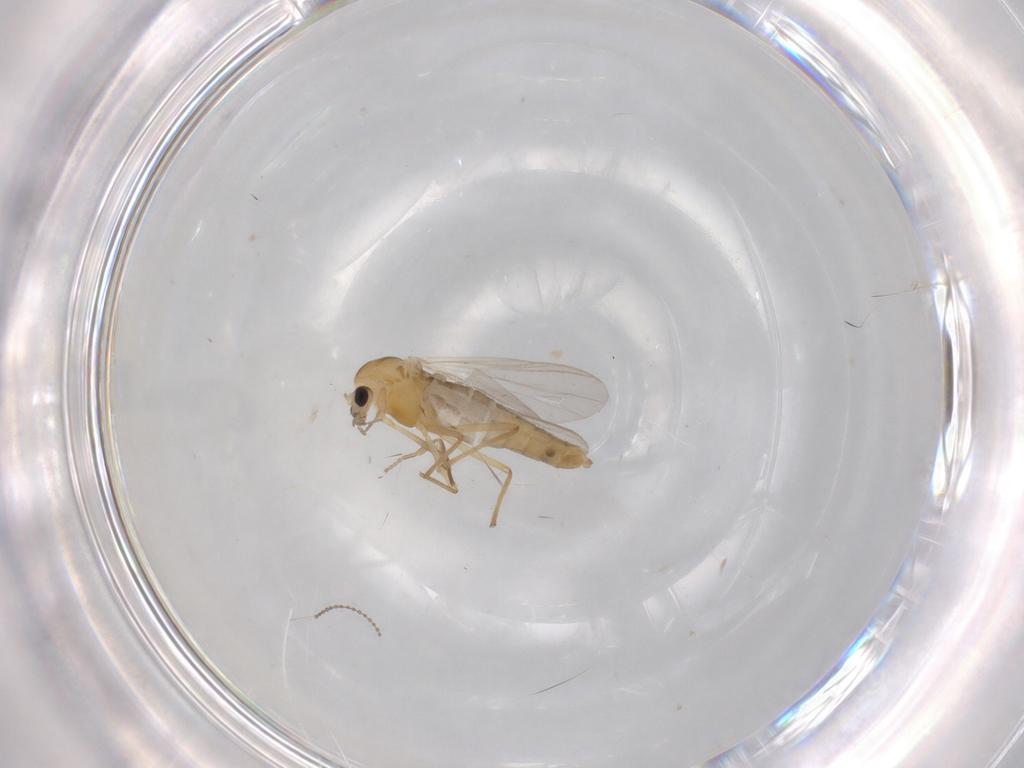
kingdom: Animalia
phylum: Arthropoda
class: Insecta
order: Diptera
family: Chironomidae
